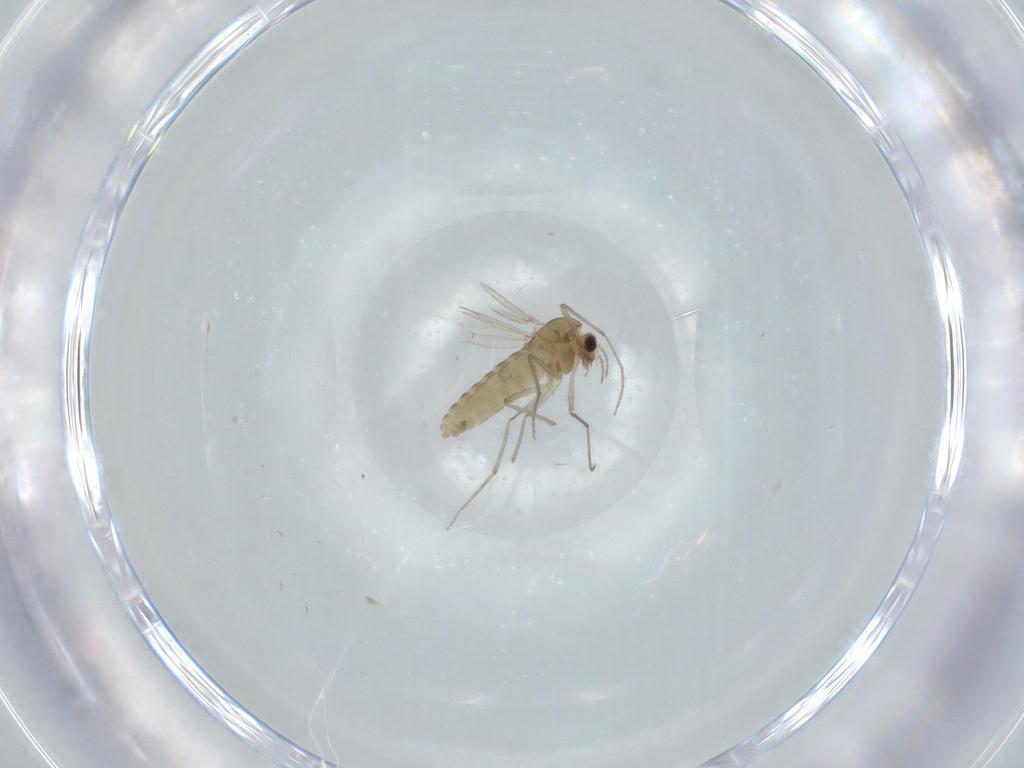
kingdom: Animalia
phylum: Arthropoda
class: Insecta
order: Diptera
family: Chironomidae
